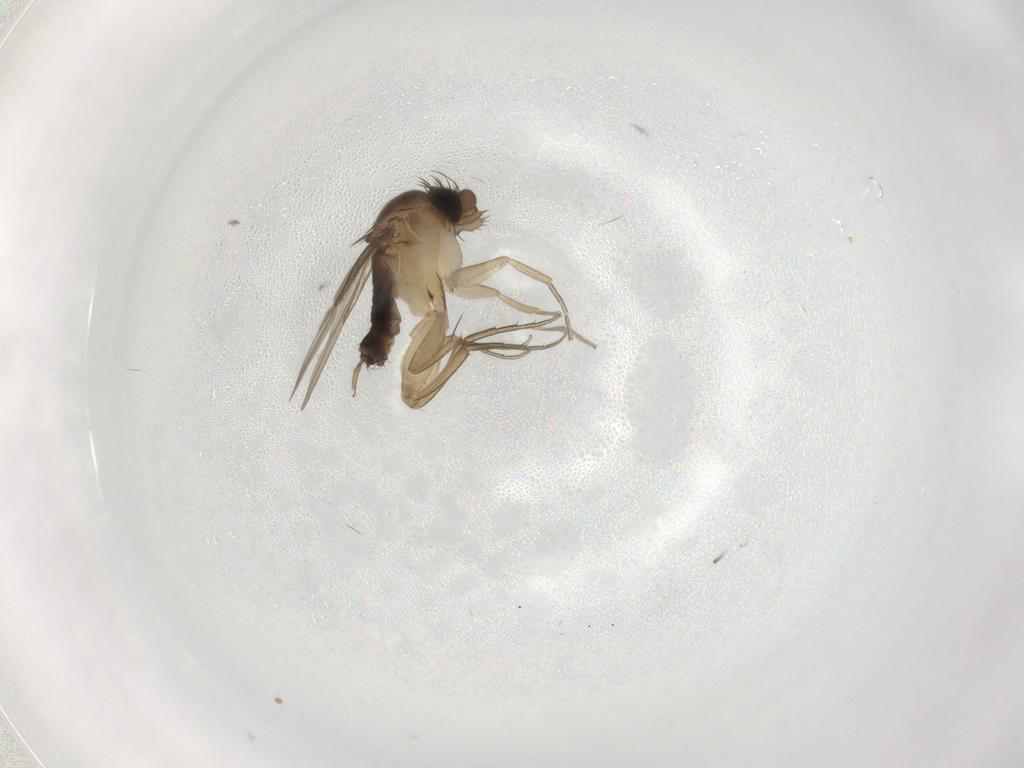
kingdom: Animalia
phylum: Arthropoda
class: Insecta
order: Diptera
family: Phoridae
